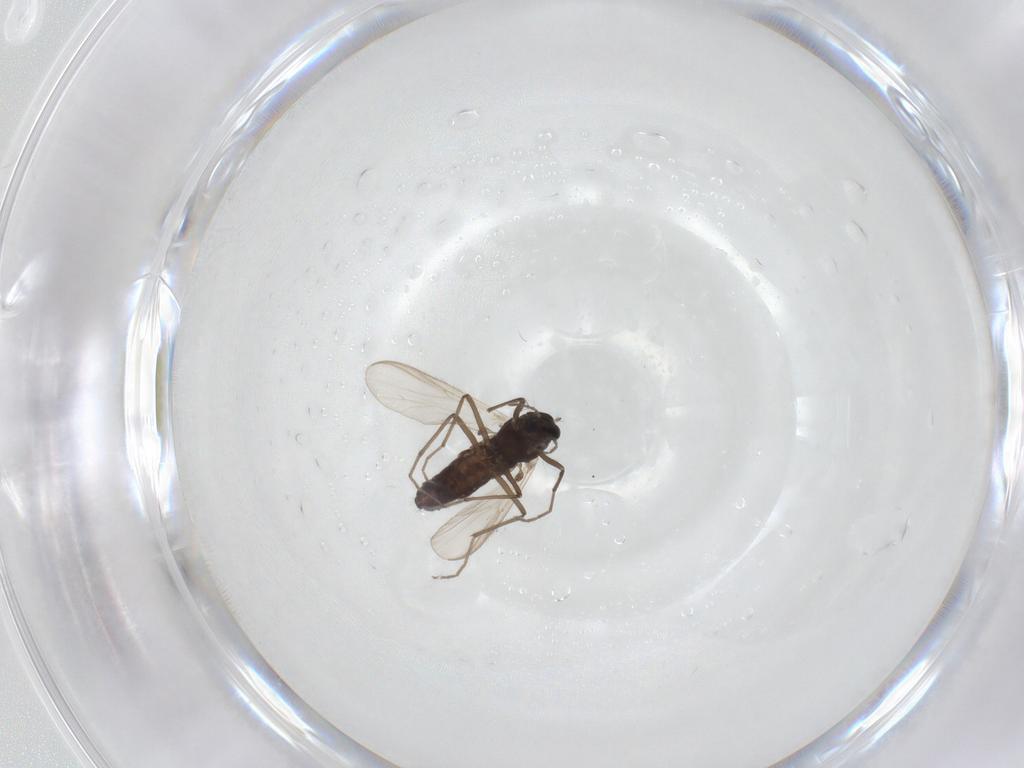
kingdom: Animalia
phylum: Arthropoda
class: Insecta
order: Diptera
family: Chironomidae
